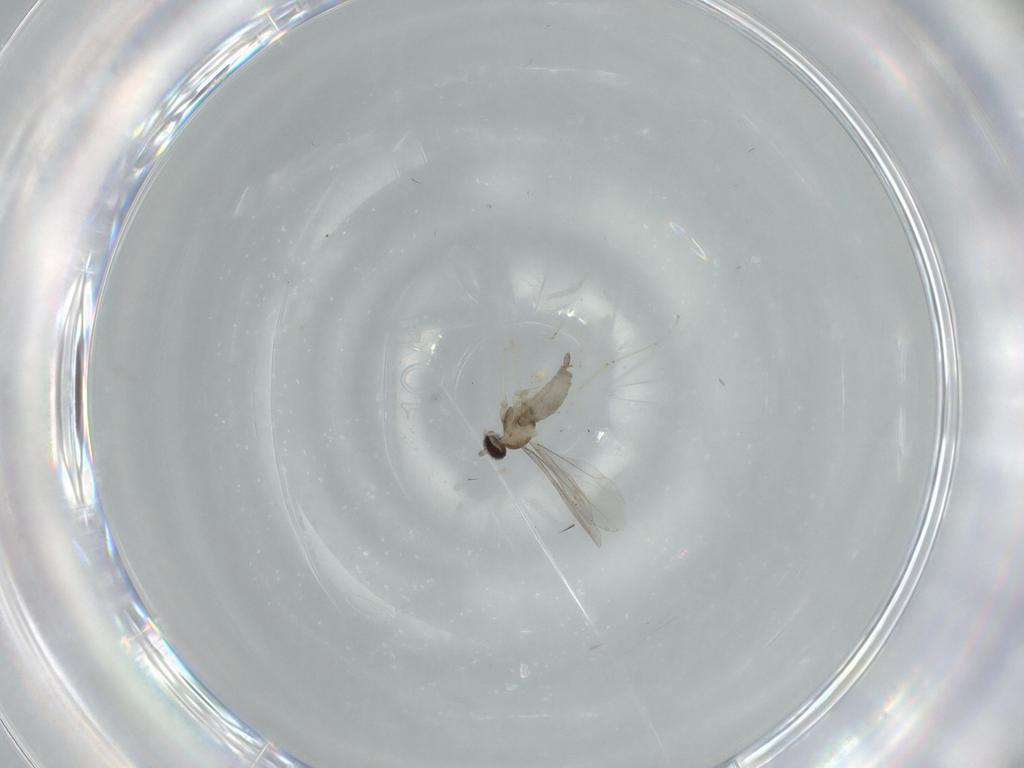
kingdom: Animalia
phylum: Arthropoda
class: Insecta
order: Diptera
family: Cecidomyiidae
